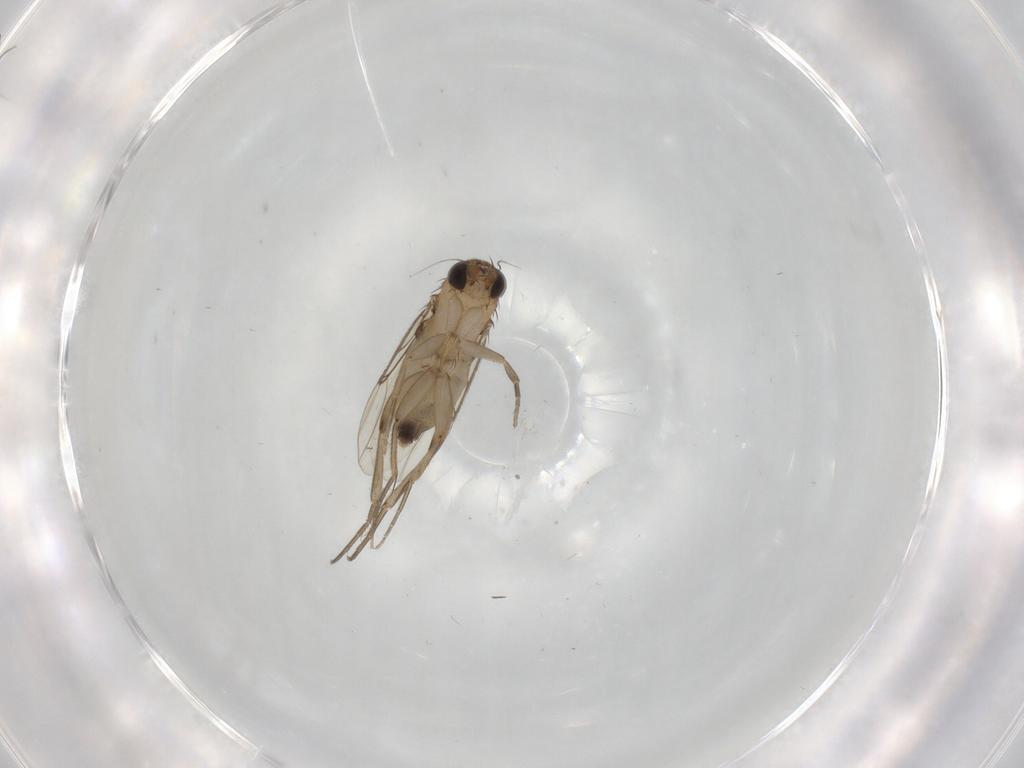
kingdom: Animalia
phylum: Arthropoda
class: Insecta
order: Diptera
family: Phoridae
